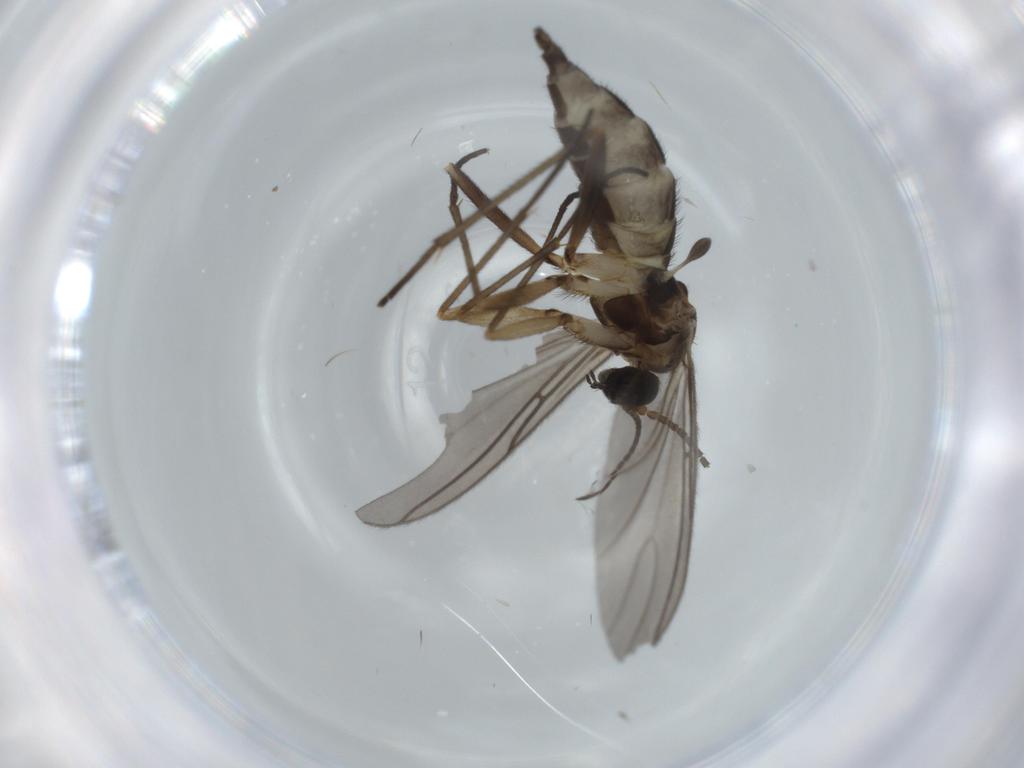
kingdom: Animalia
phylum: Arthropoda
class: Insecta
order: Diptera
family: Sciaridae
